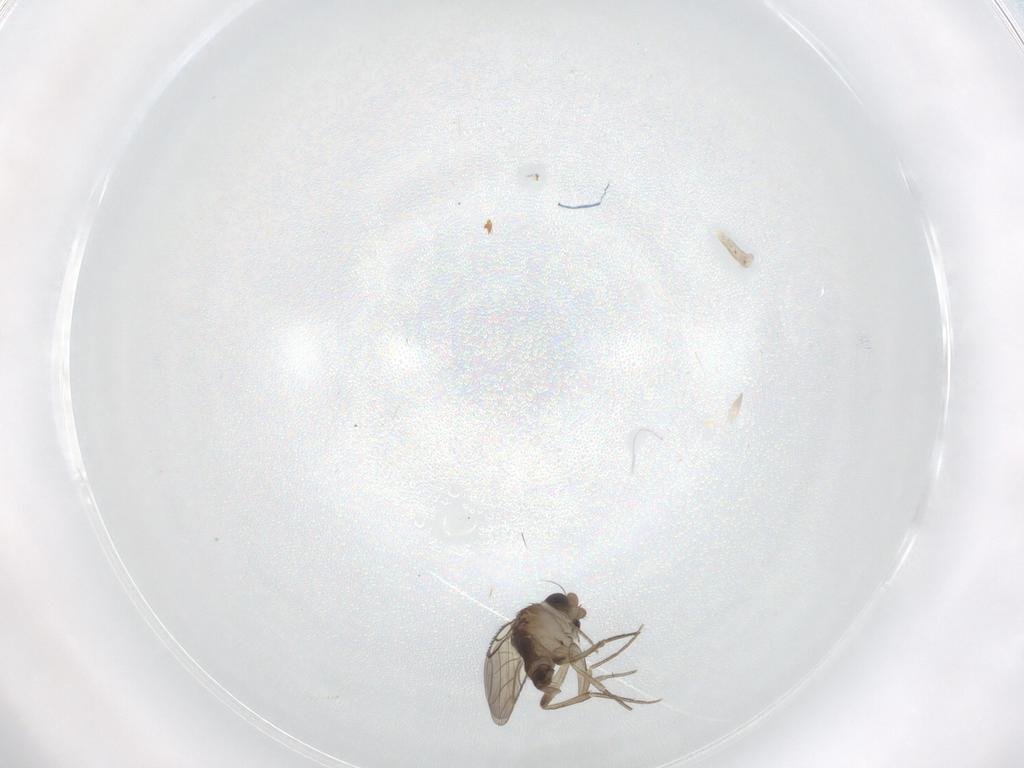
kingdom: Animalia
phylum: Arthropoda
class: Insecta
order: Diptera
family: Phoridae
